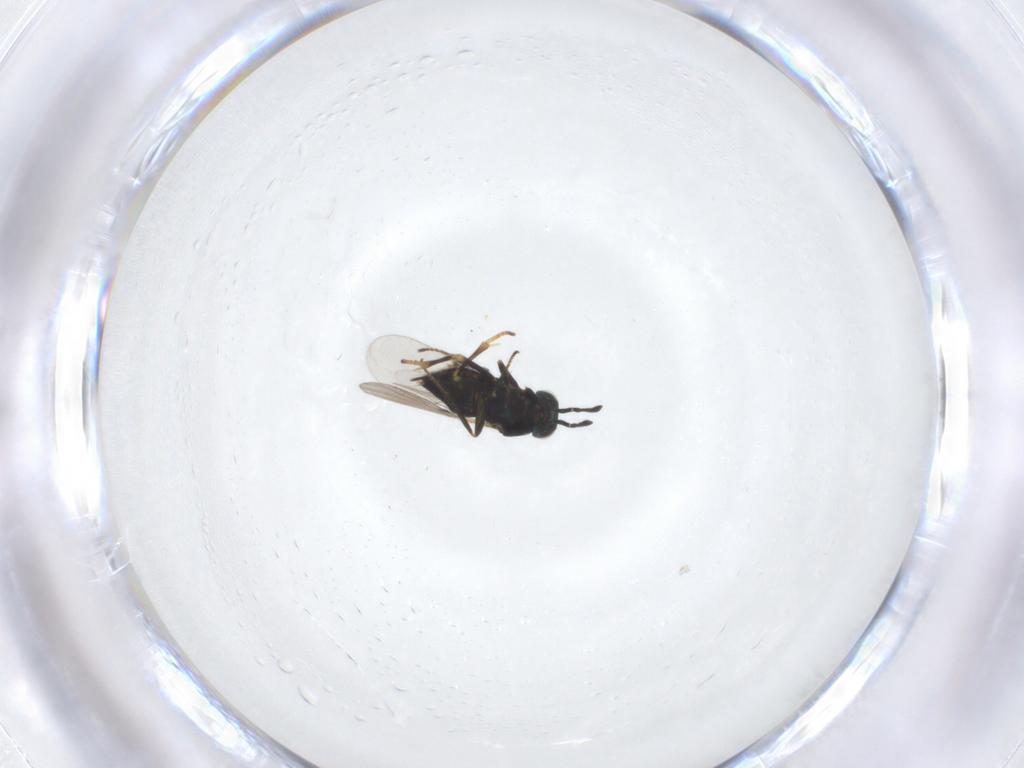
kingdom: Animalia
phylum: Arthropoda
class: Insecta
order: Hymenoptera
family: Encyrtidae
